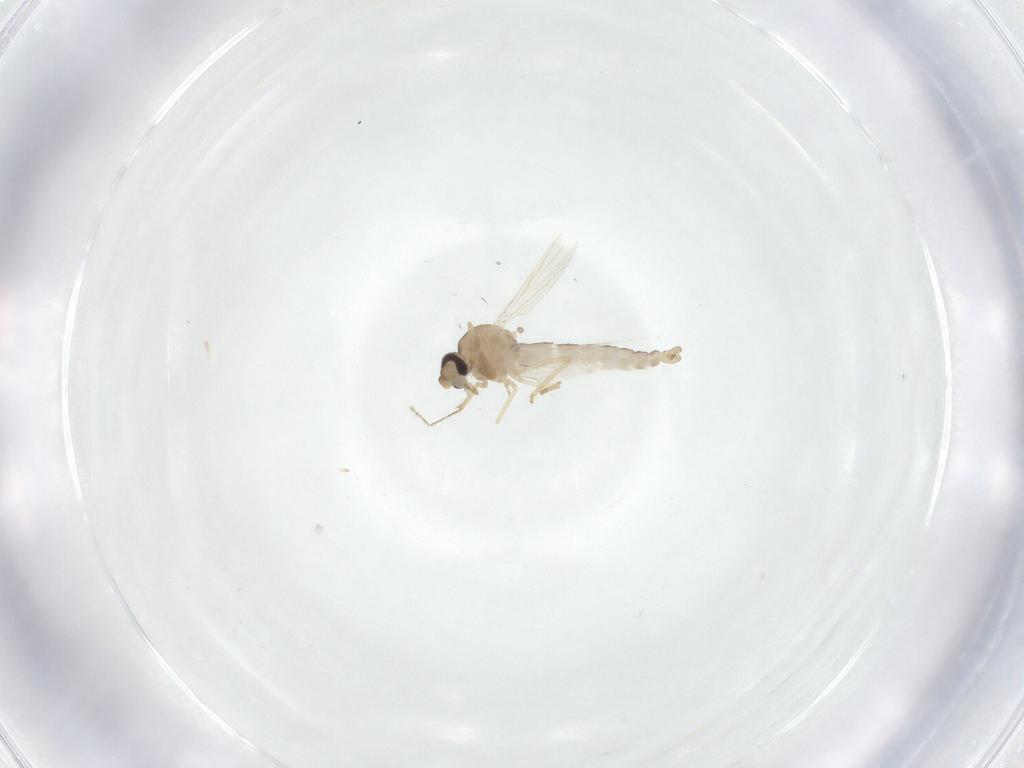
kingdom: Animalia
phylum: Arthropoda
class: Insecta
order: Diptera
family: Ceratopogonidae
